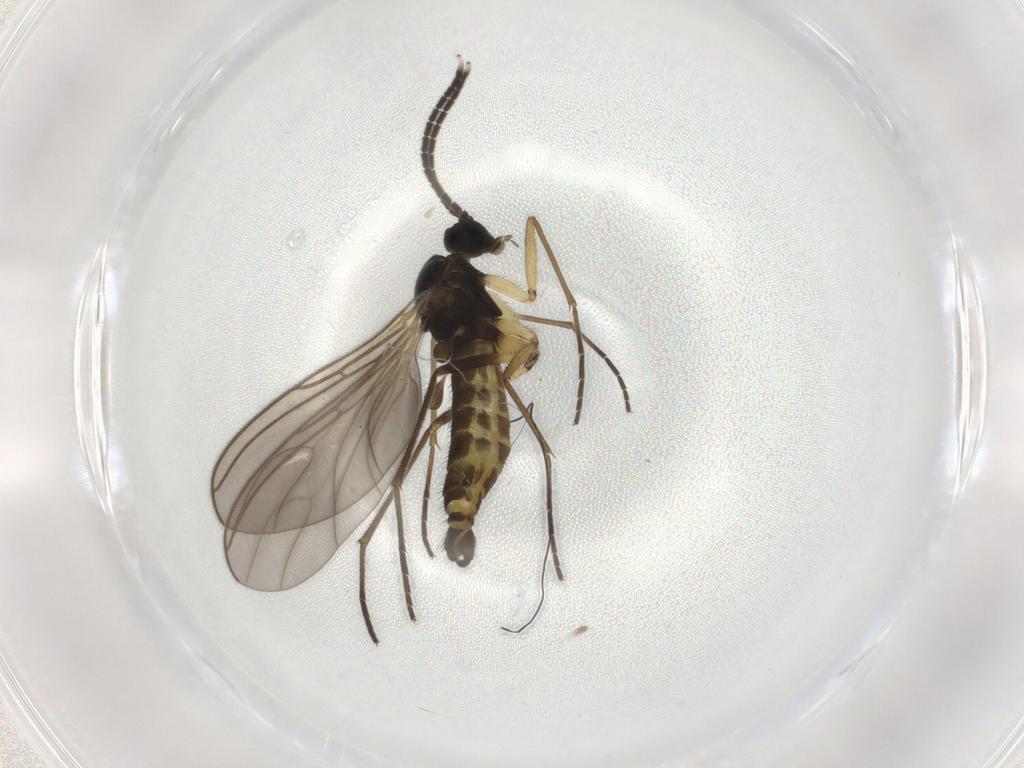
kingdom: Animalia
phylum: Arthropoda
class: Insecta
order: Diptera
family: Sciaridae
